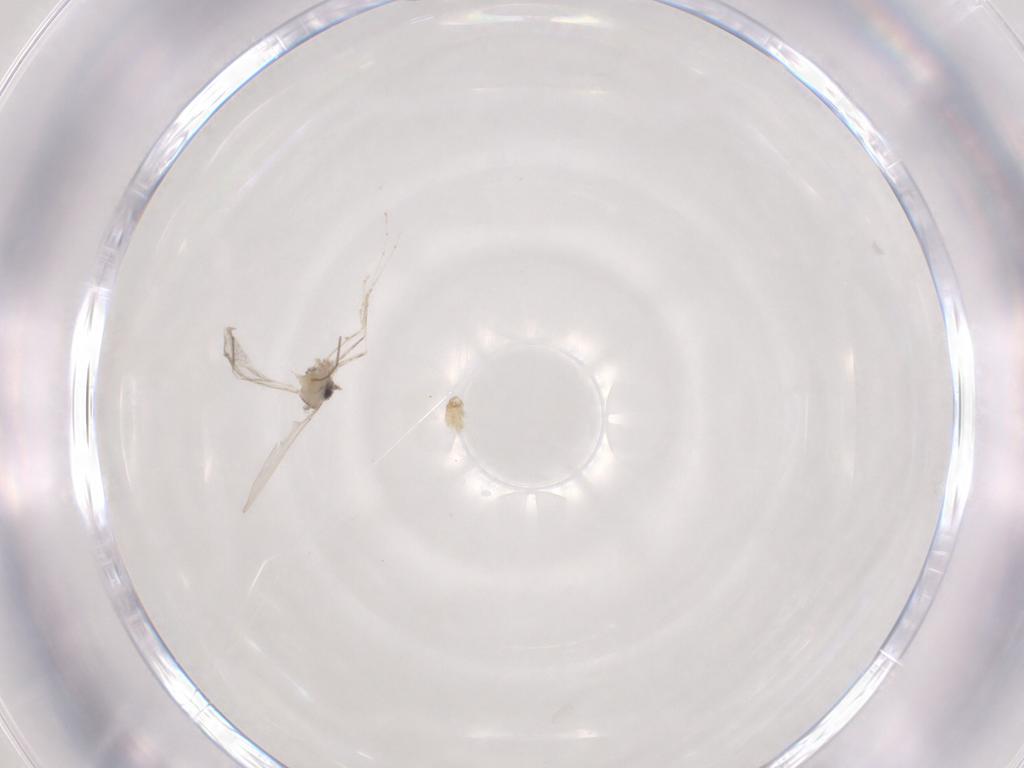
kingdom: Animalia
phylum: Arthropoda
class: Insecta
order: Diptera
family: Chironomidae
